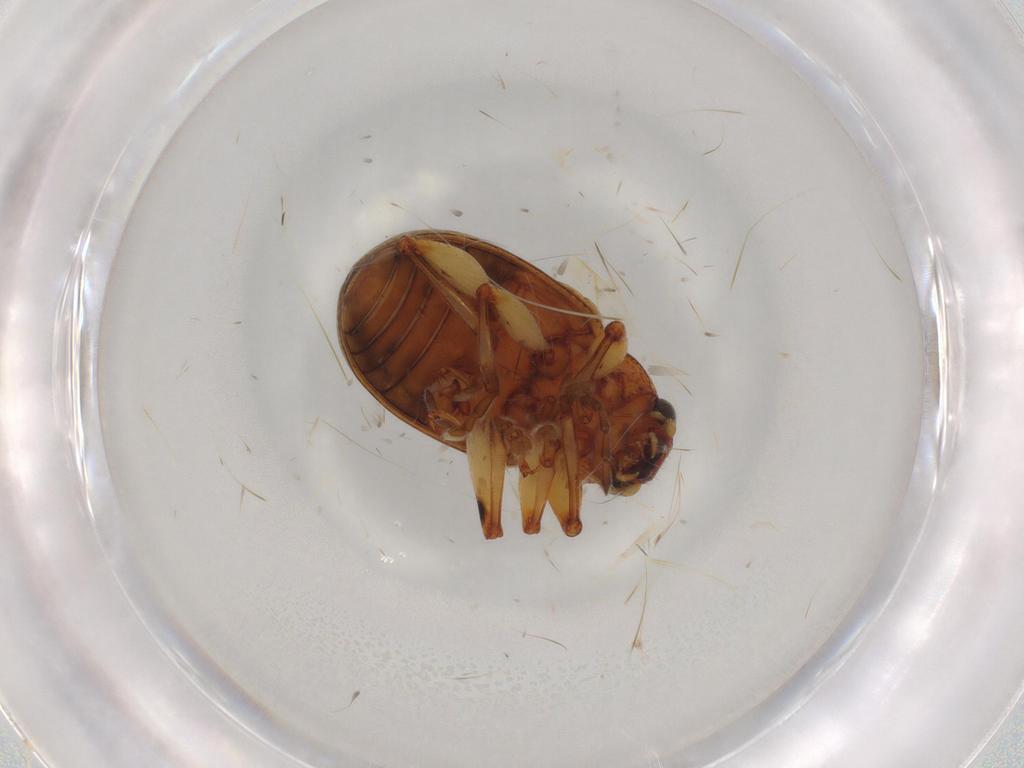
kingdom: Animalia
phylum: Arthropoda
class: Insecta
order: Coleoptera
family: Chrysomelidae
